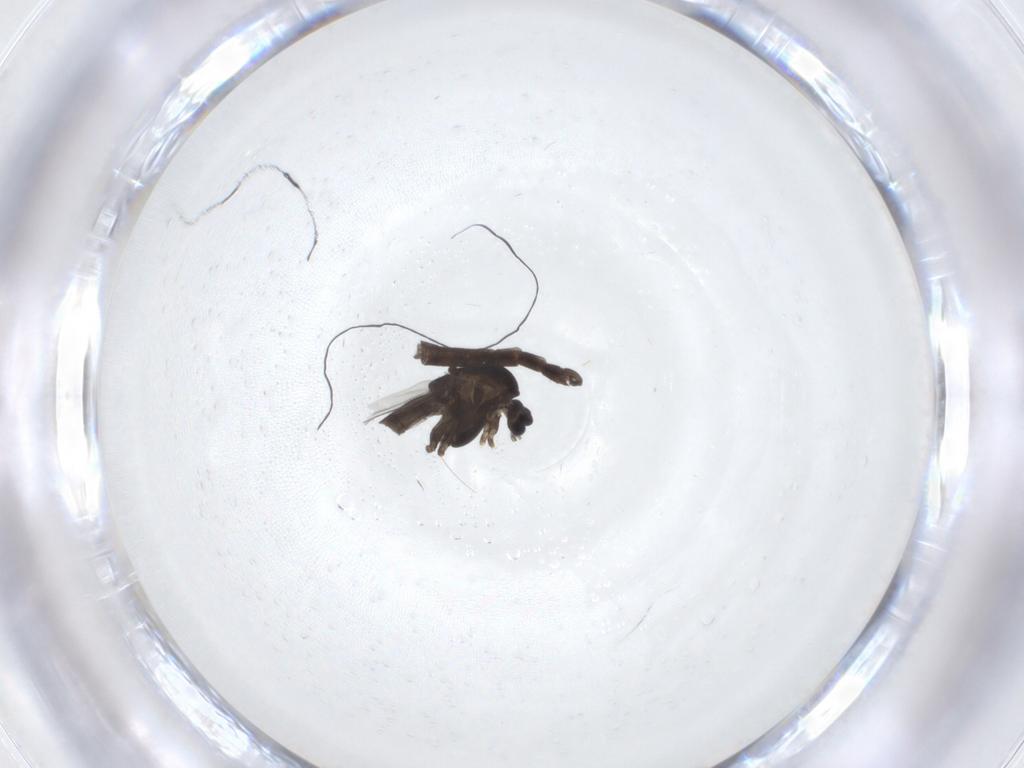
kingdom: Animalia
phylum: Arthropoda
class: Insecta
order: Diptera
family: Chironomidae
